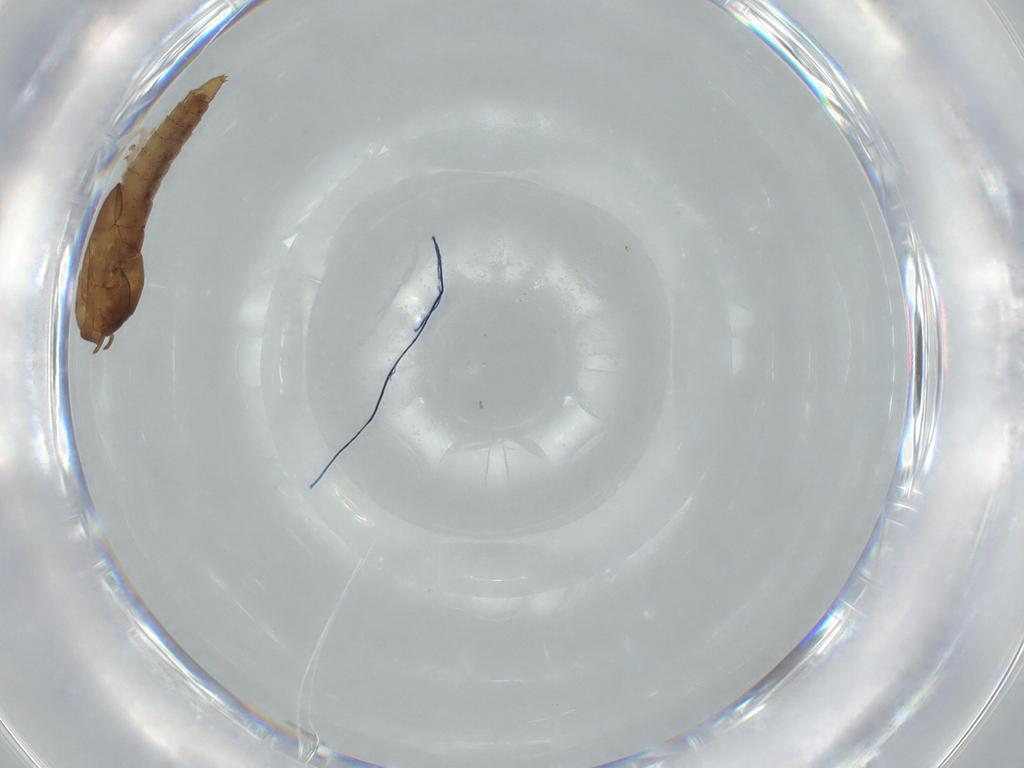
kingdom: Animalia
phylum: Arthropoda
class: Insecta
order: Diptera
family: Ceratopogonidae
